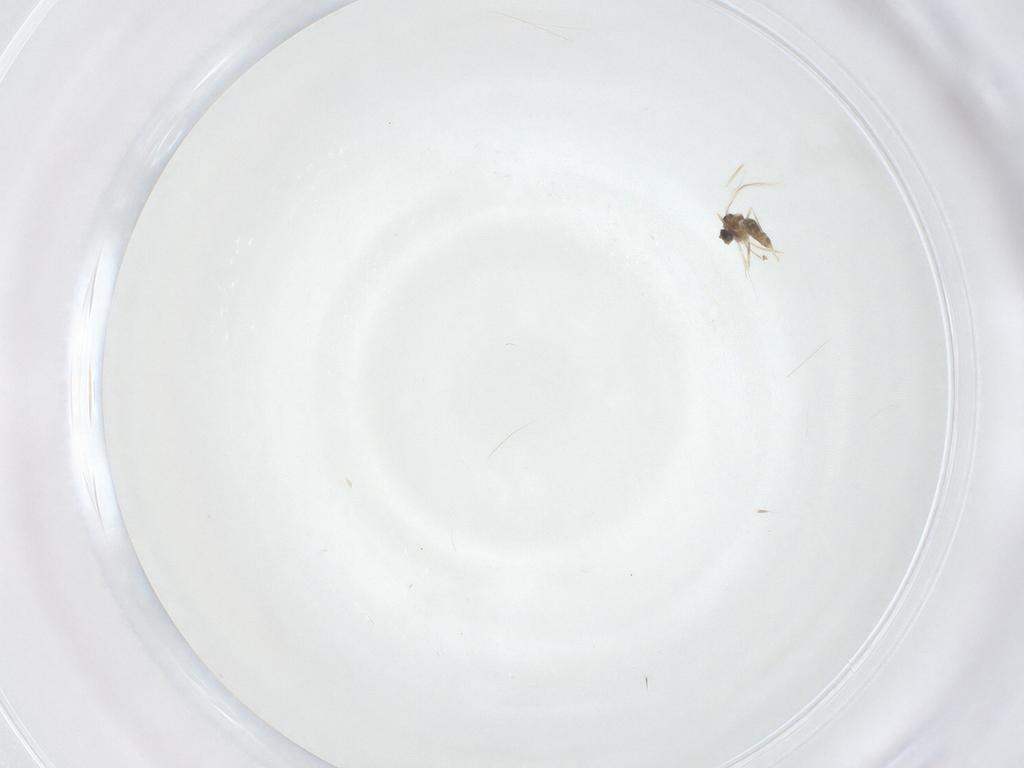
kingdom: Animalia
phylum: Arthropoda
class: Insecta
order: Diptera
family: Cecidomyiidae
